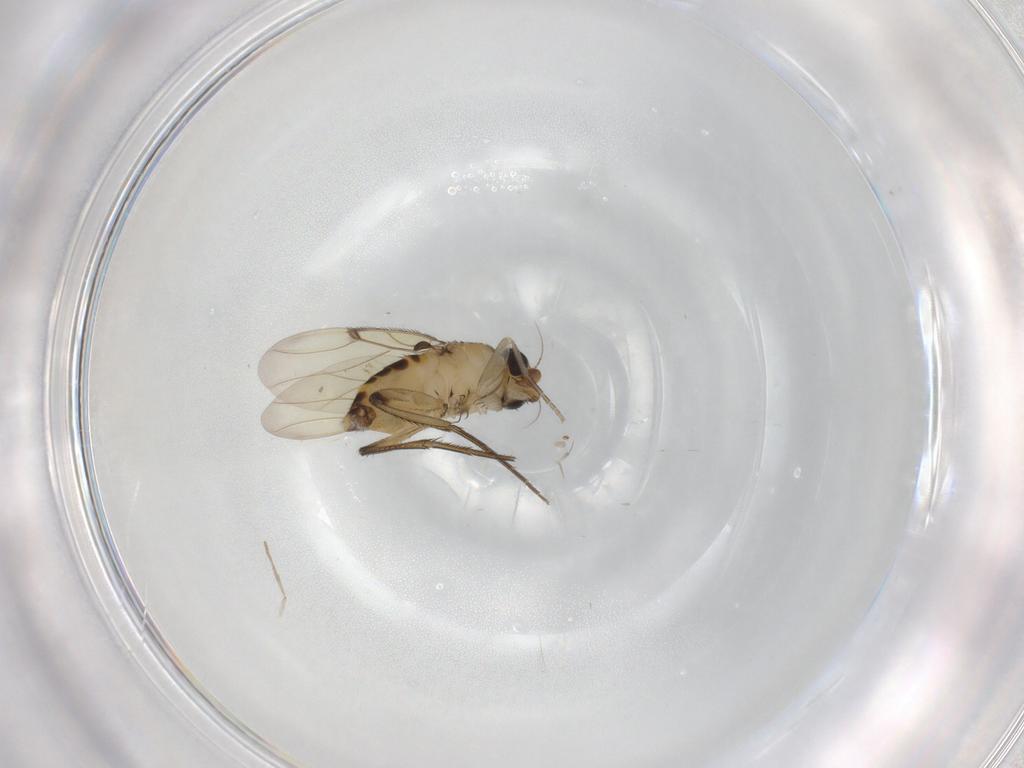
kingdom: Animalia
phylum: Arthropoda
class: Insecta
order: Diptera
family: Phoridae
